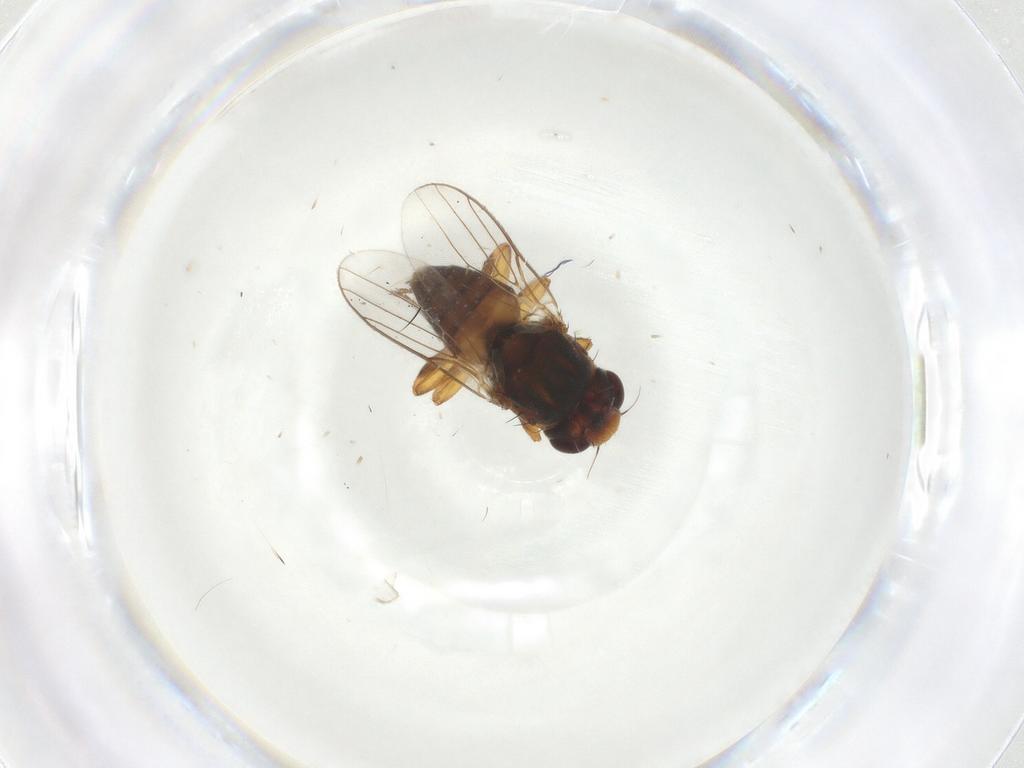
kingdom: Animalia
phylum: Arthropoda
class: Insecta
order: Diptera
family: Chloropidae
